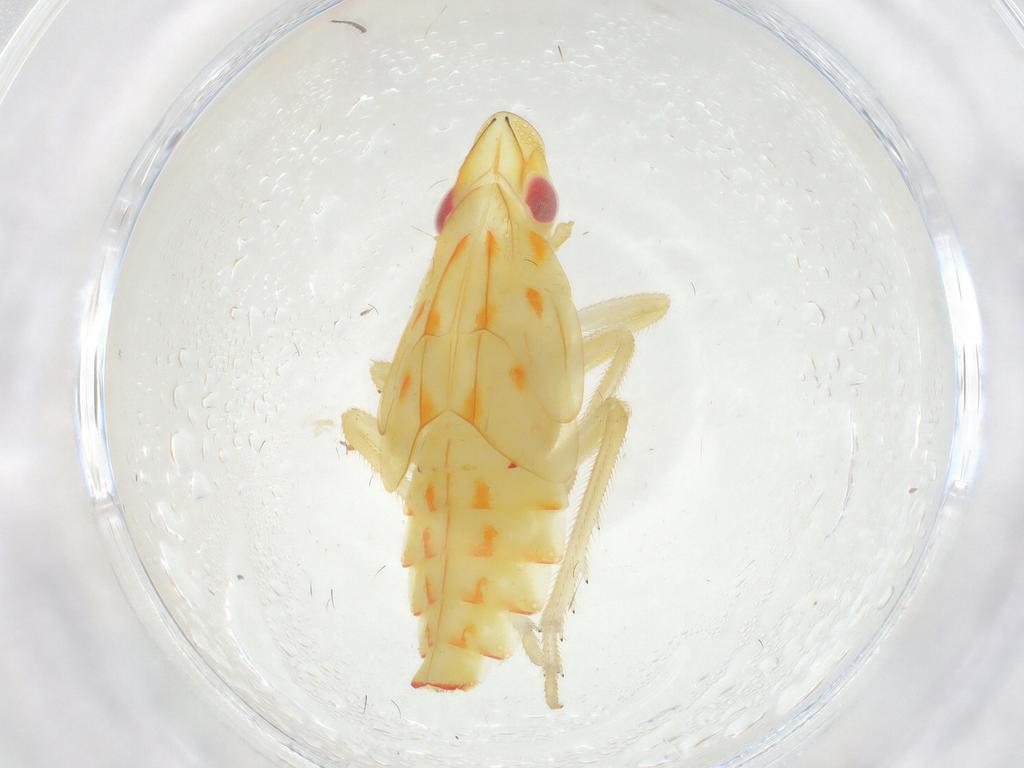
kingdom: Animalia
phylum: Arthropoda
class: Insecta
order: Hemiptera
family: Tropiduchidae
